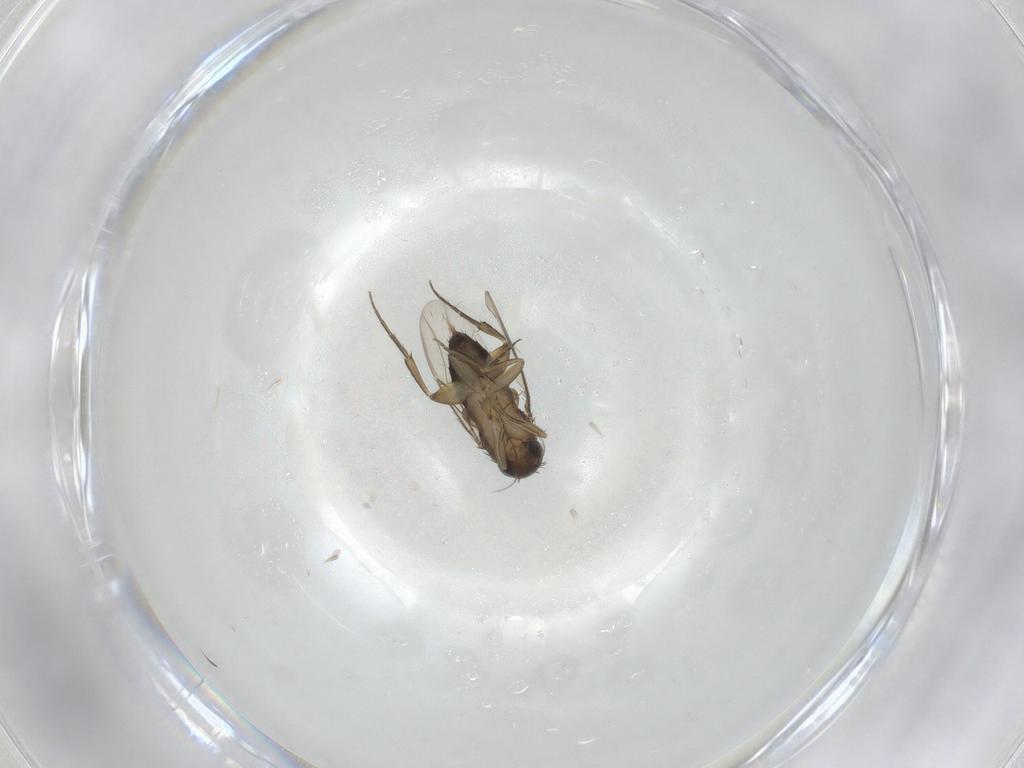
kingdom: Animalia
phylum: Arthropoda
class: Insecta
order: Diptera
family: Phoridae
